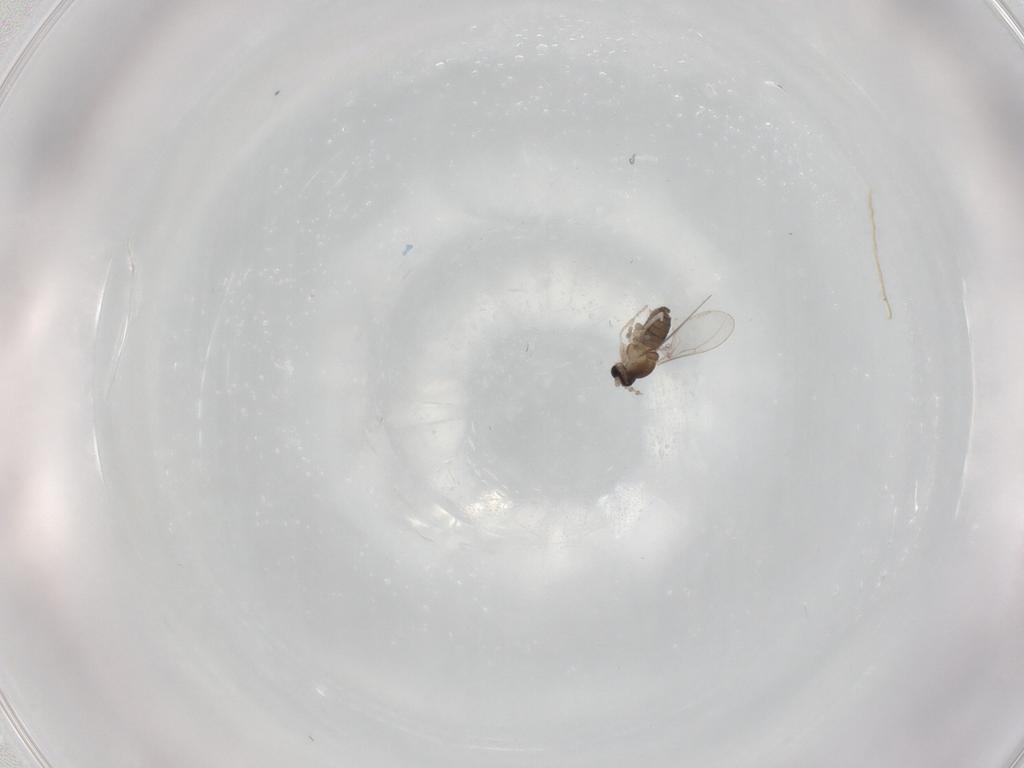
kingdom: Animalia
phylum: Arthropoda
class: Insecta
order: Diptera
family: Cecidomyiidae
